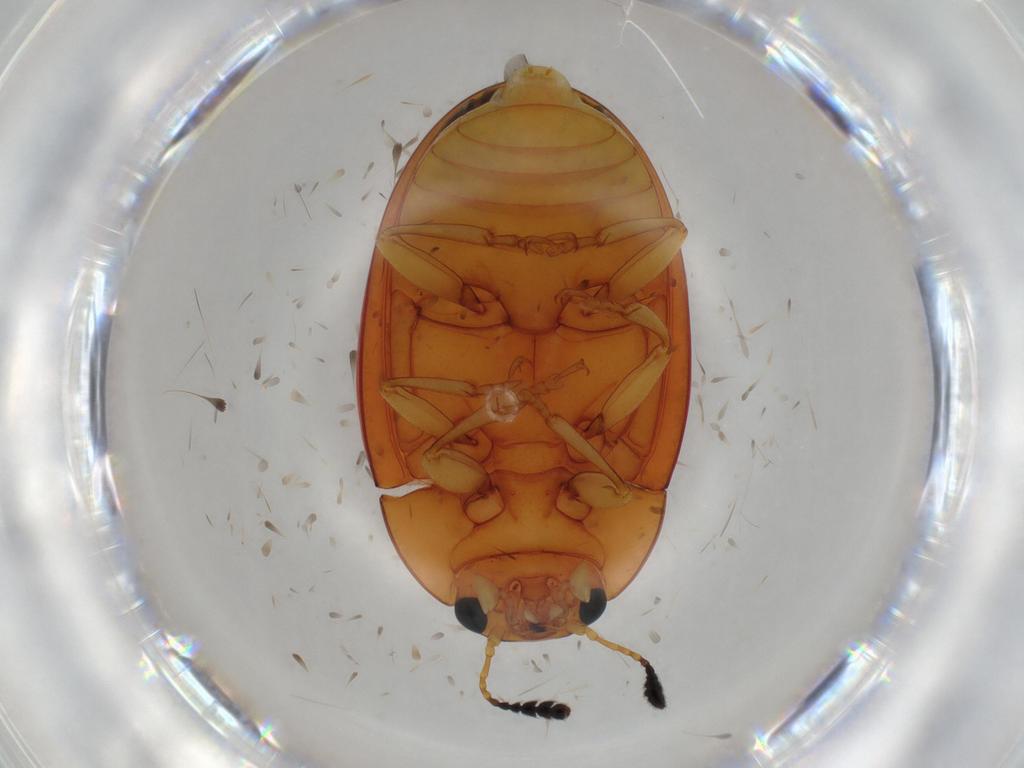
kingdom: Animalia
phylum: Arthropoda
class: Insecta
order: Coleoptera
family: Erotylidae
